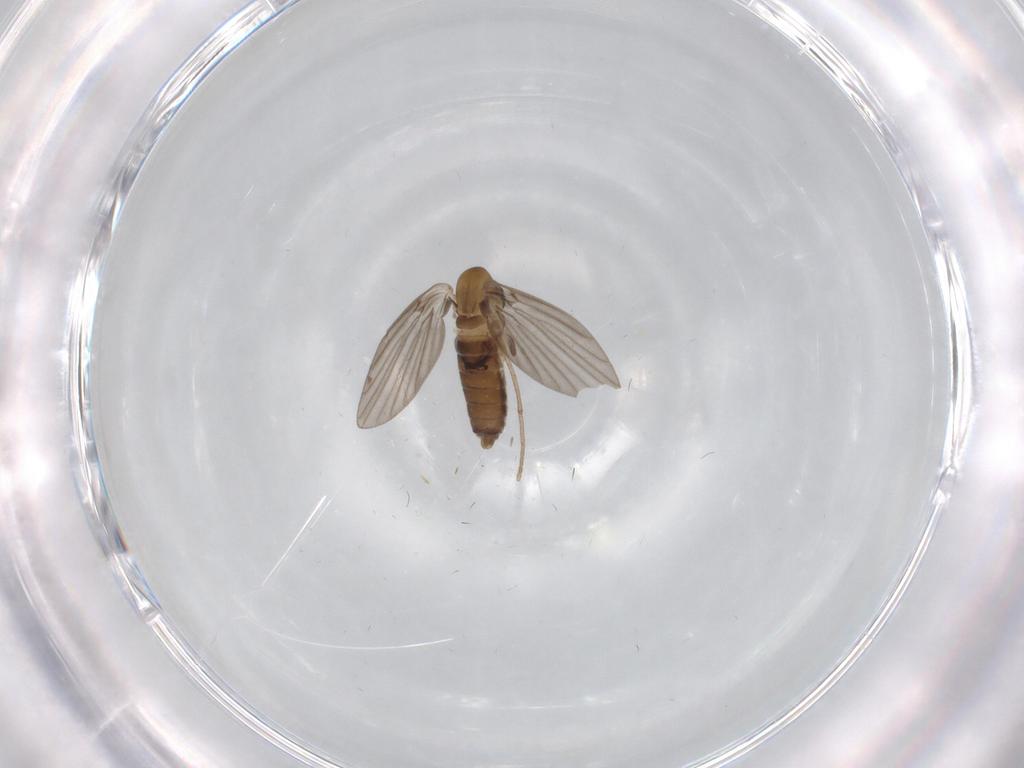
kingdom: Animalia
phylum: Arthropoda
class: Insecta
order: Diptera
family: Cecidomyiidae
